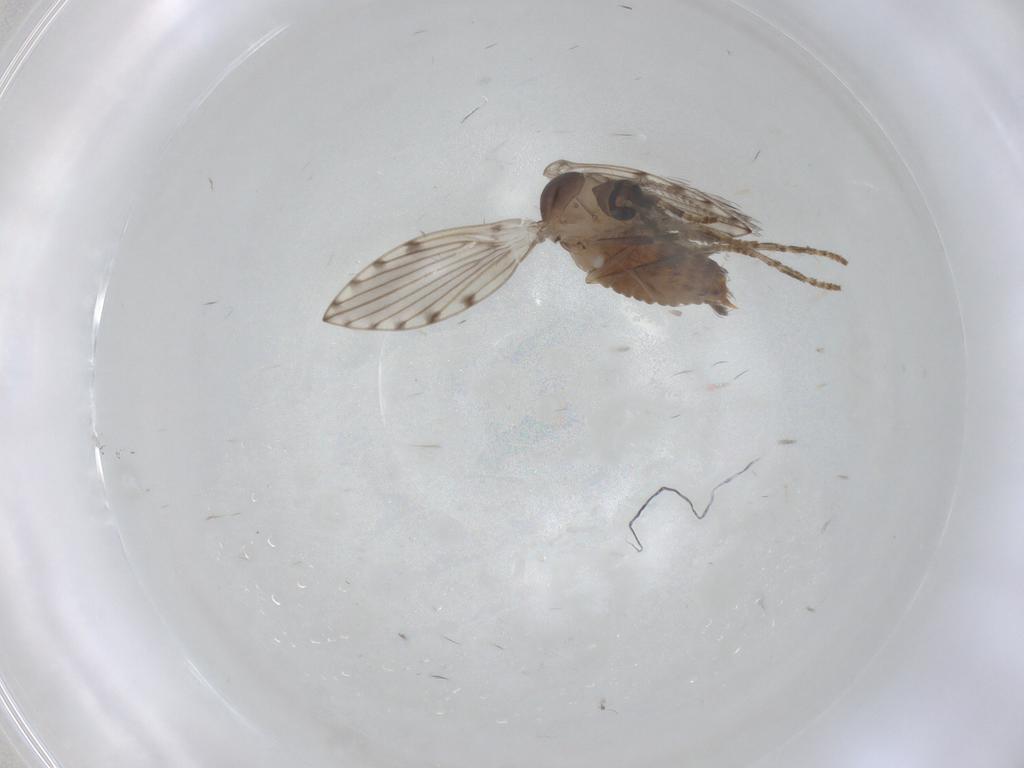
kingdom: Animalia
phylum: Arthropoda
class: Insecta
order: Diptera
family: Psychodidae
